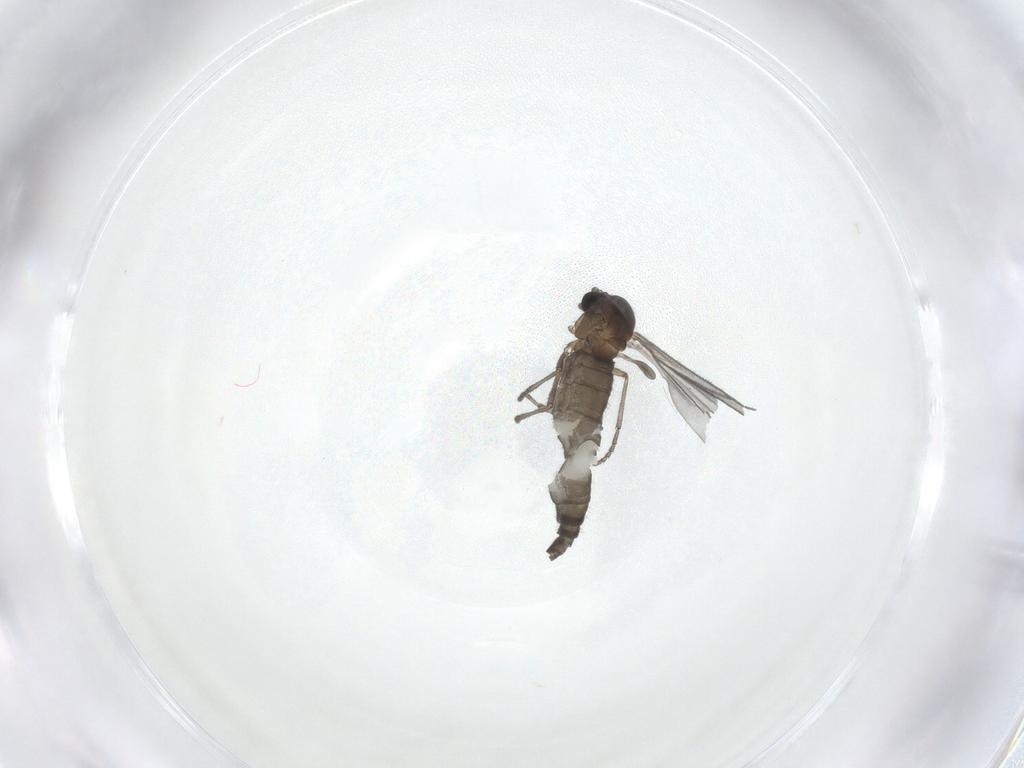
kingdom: Animalia
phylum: Arthropoda
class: Insecta
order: Diptera
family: Sciaridae
